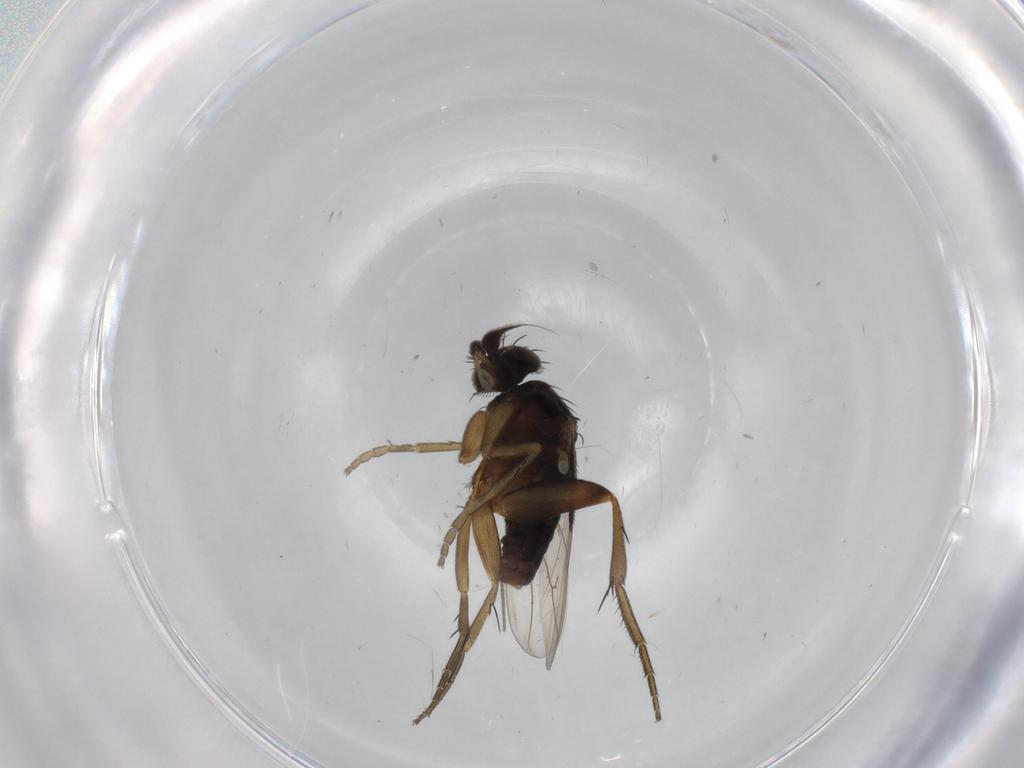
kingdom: Animalia
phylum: Arthropoda
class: Insecta
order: Diptera
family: Phoridae
